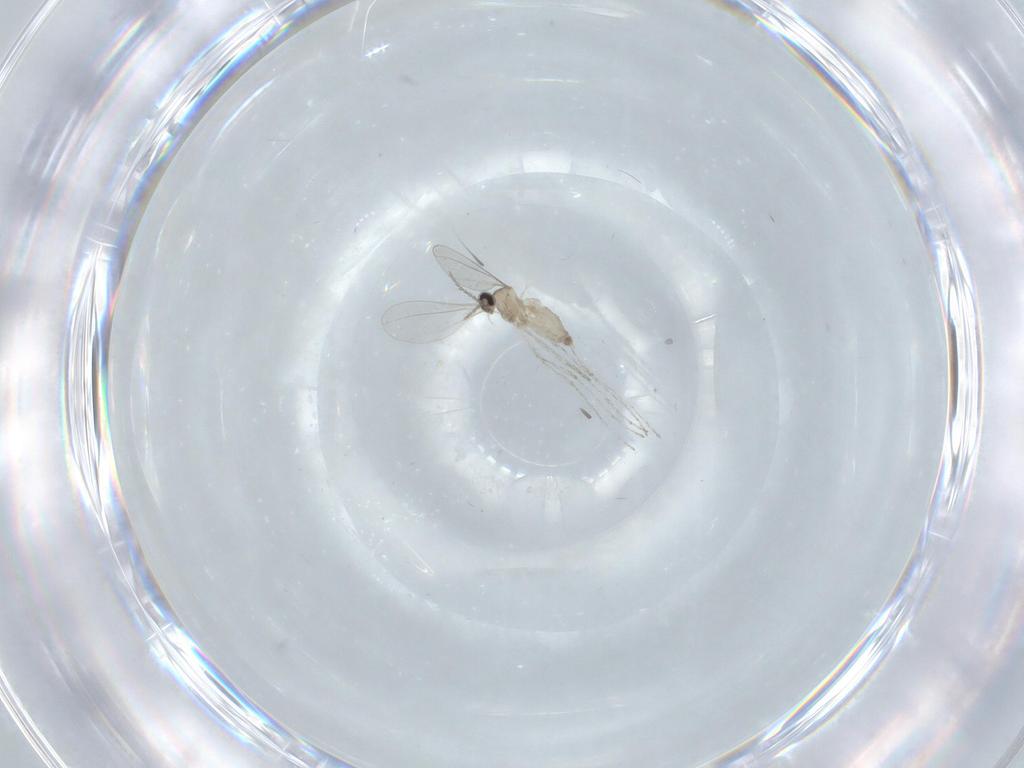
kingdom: Animalia
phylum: Arthropoda
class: Insecta
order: Diptera
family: Cecidomyiidae
